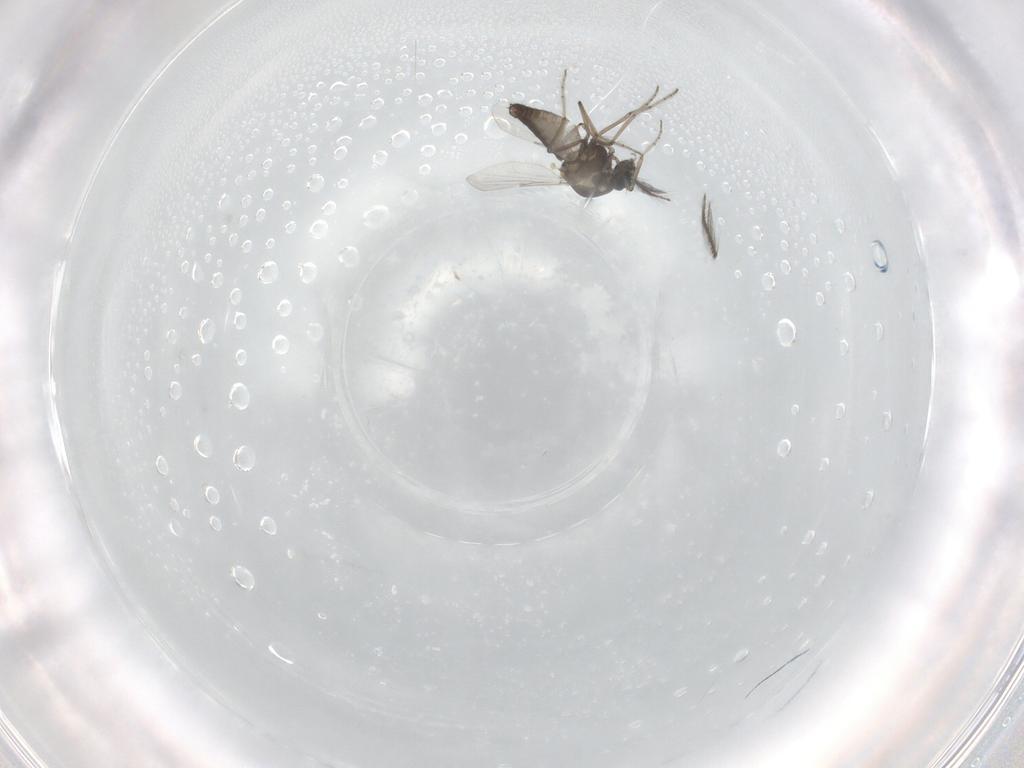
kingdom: Animalia
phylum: Arthropoda
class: Insecta
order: Diptera
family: Ceratopogonidae
